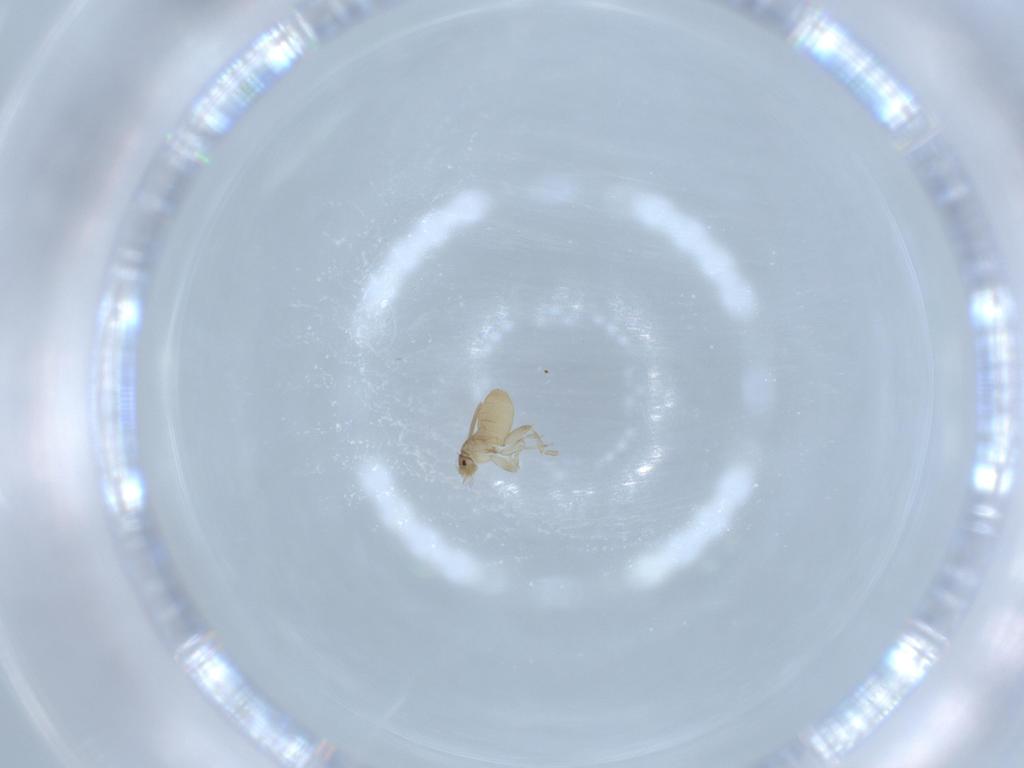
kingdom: Animalia
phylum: Arthropoda
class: Insecta
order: Diptera
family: Phoridae
